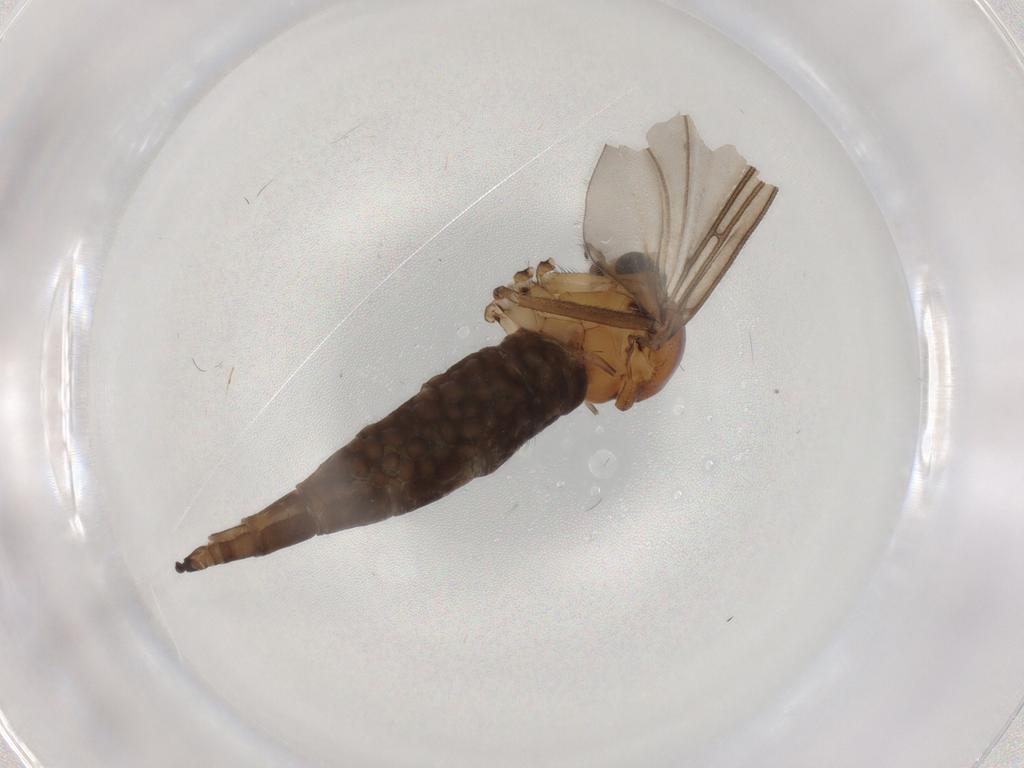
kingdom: Animalia
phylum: Arthropoda
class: Insecta
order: Diptera
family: Sciaridae
